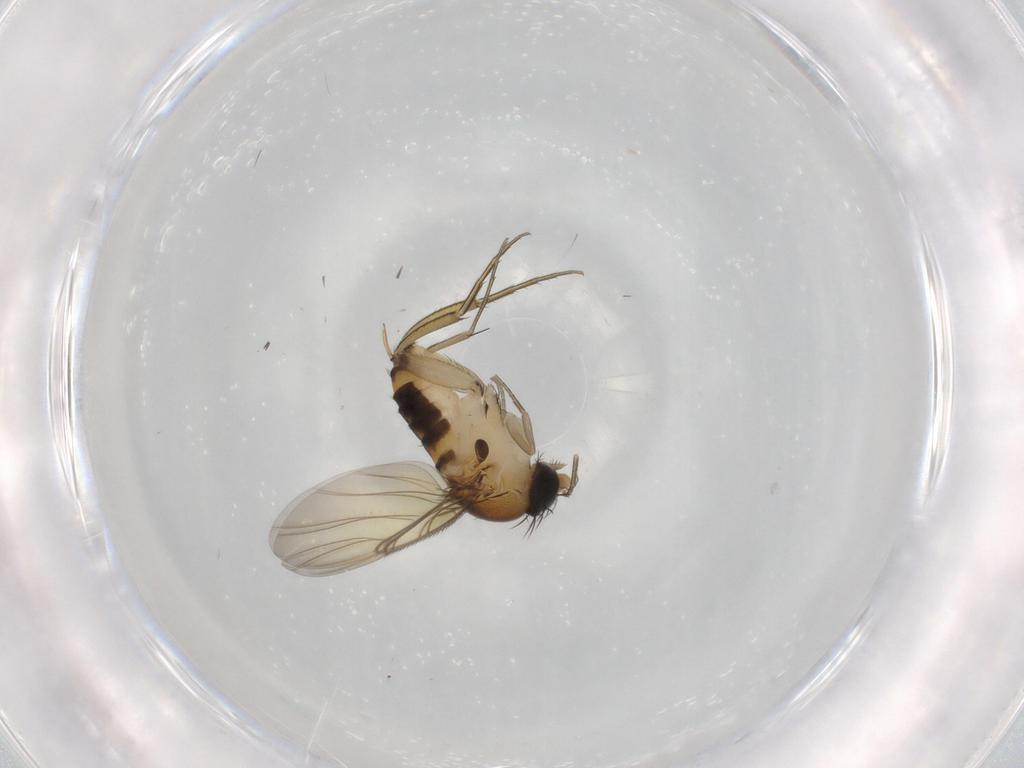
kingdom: Animalia
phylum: Arthropoda
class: Insecta
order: Diptera
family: Phoridae
